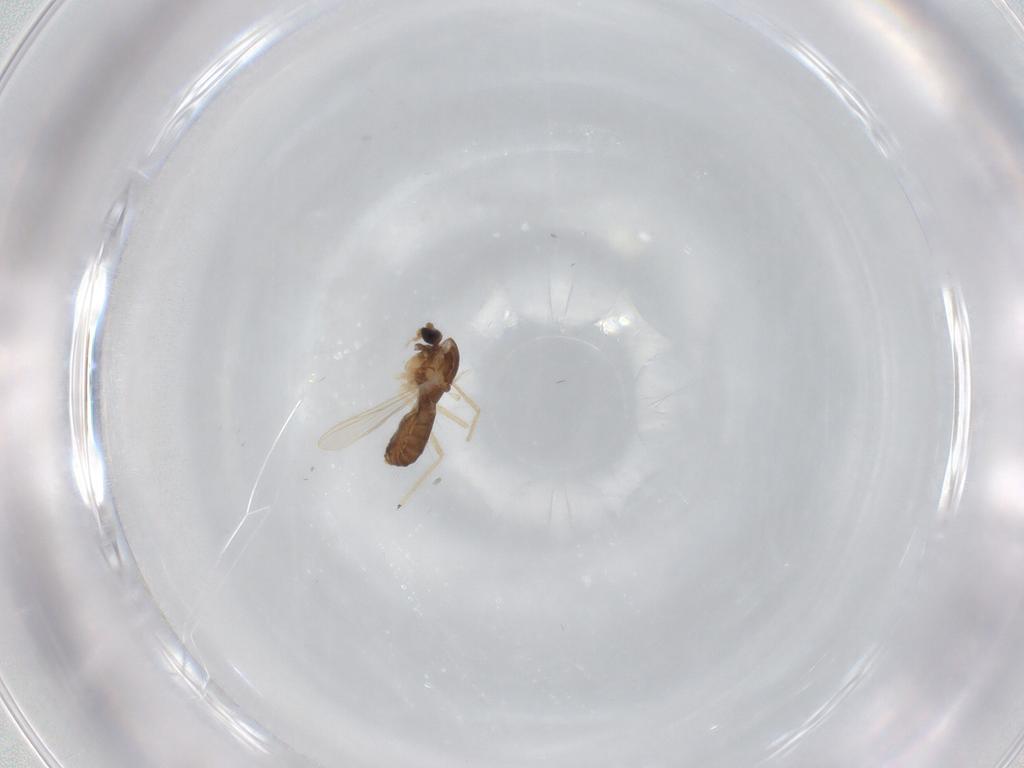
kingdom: Animalia
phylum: Arthropoda
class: Insecta
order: Diptera
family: Chironomidae
